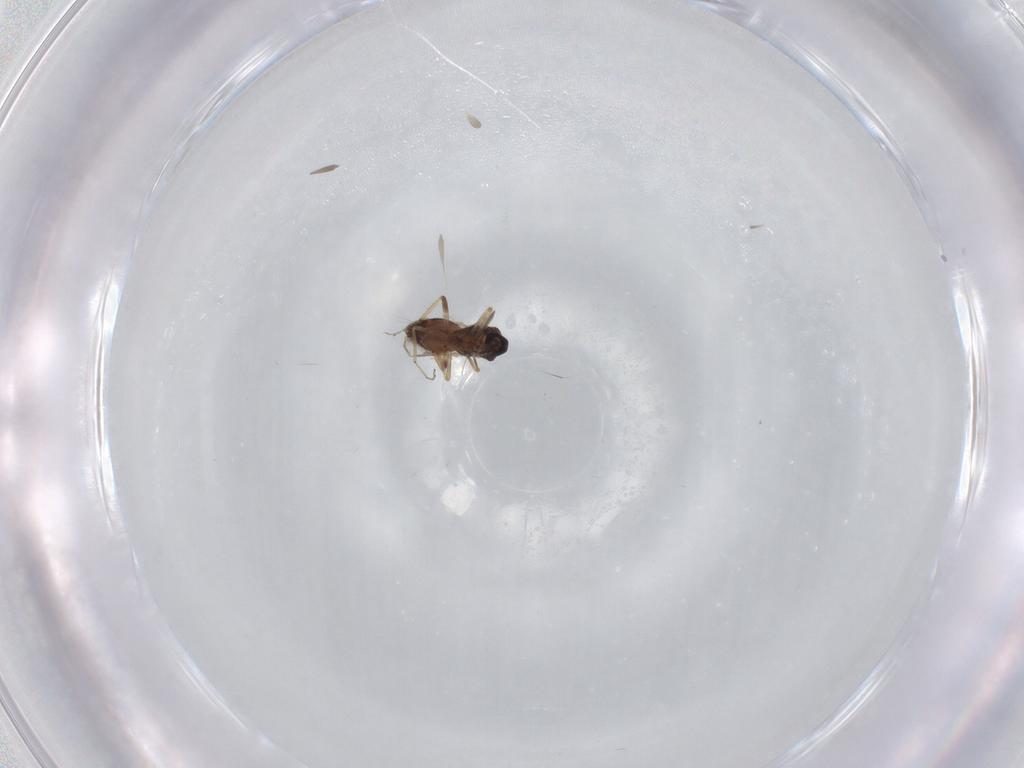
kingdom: Animalia
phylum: Arthropoda
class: Insecta
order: Diptera
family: Ceratopogonidae
